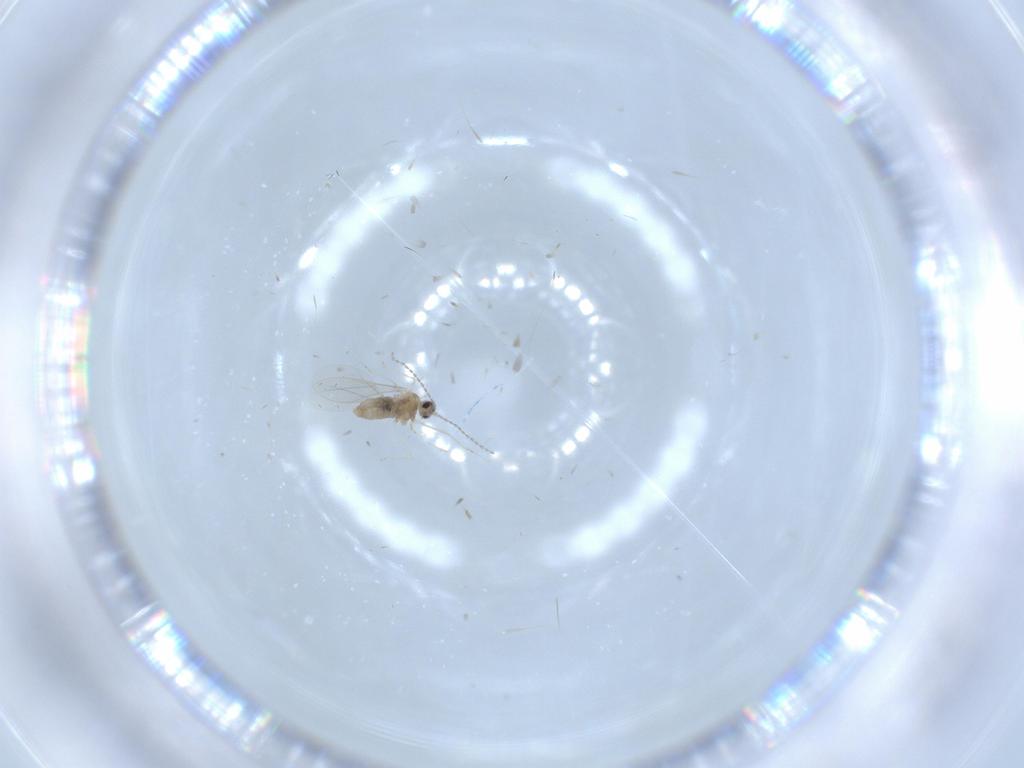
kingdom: Animalia
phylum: Arthropoda
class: Insecta
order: Diptera
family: Cecidomyiidae
